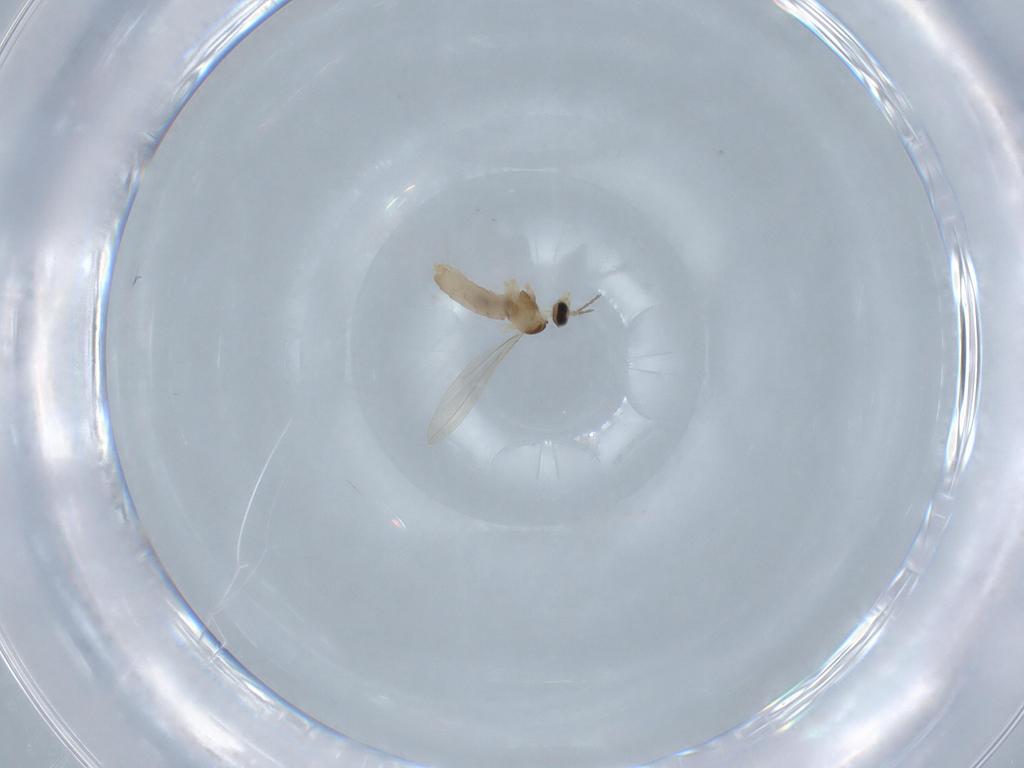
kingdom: Animalia
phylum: Arthropoda
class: Insecta
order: Diptera
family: Cecidomyiidae
